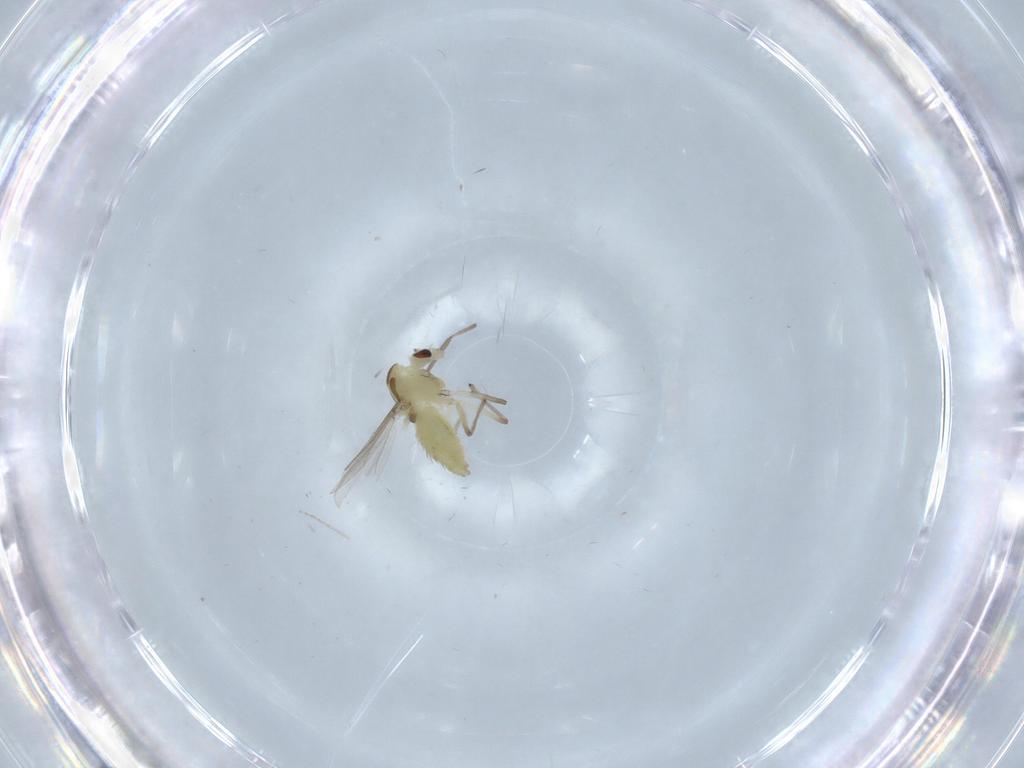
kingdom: Animalia
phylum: Arthropoda
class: Insecta
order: Diptera
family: Chironomidae
